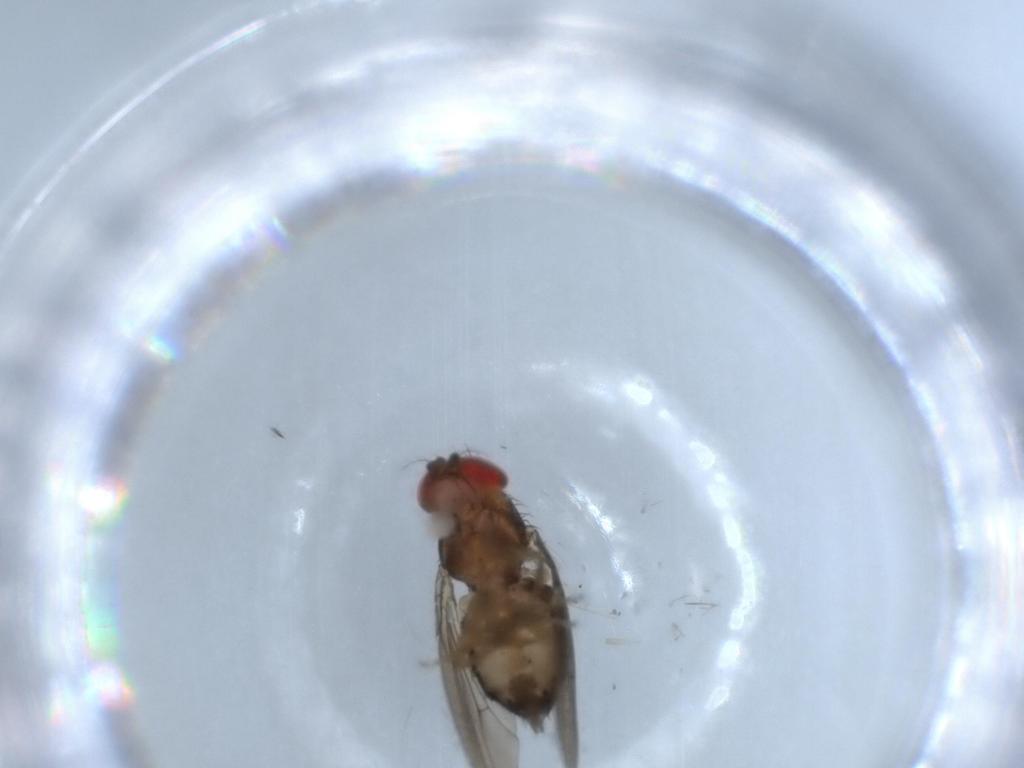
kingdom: Animalia
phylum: Arthropoda
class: Insecta
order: Diptera
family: Drosophilidae
